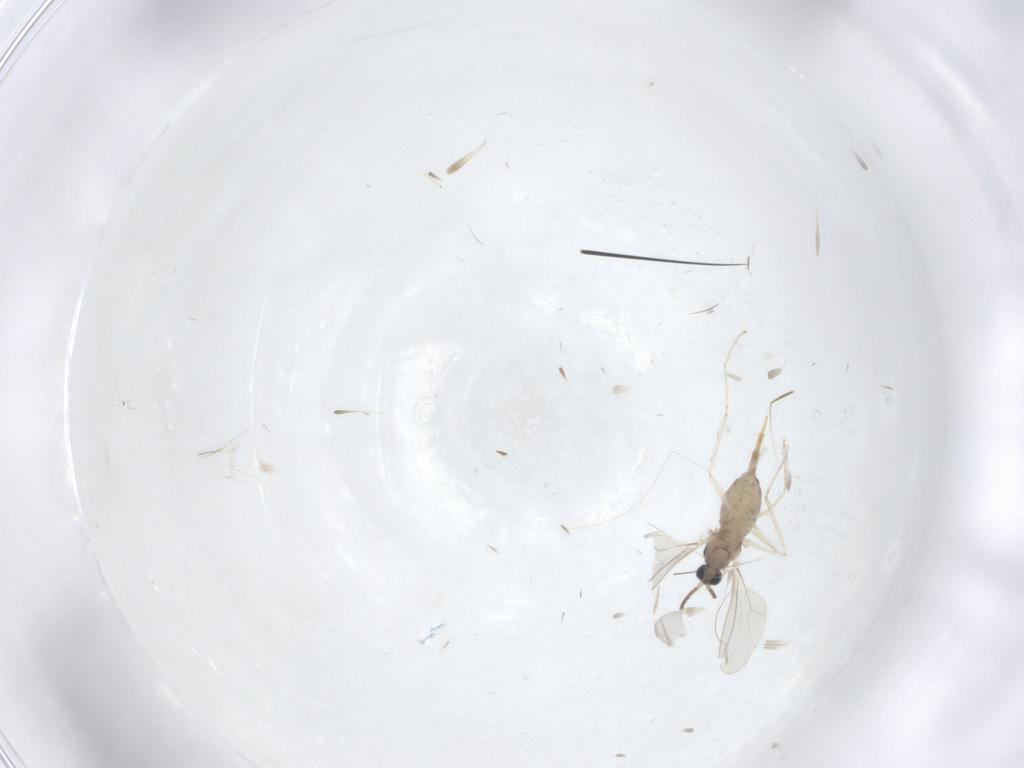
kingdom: Animalia
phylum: Arthropoda
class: Insecta
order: Diptera
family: Cecidomyiidae
